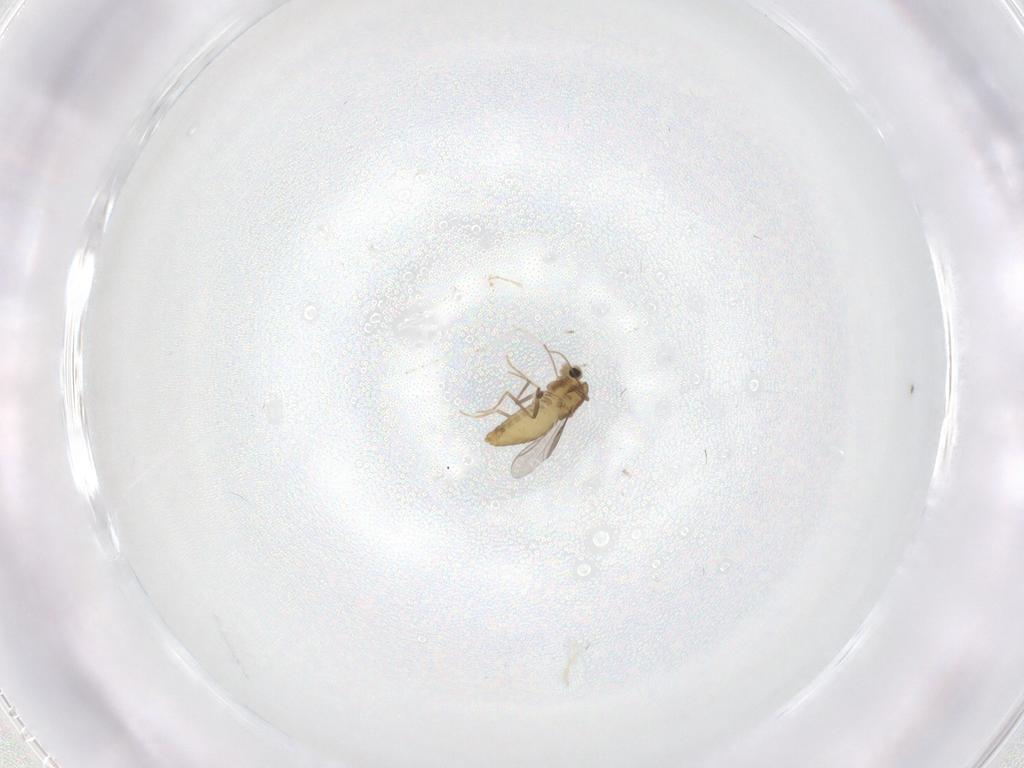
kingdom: Animalia
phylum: Arthropoda
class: Insecta
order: Diptera
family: Chironomidae
